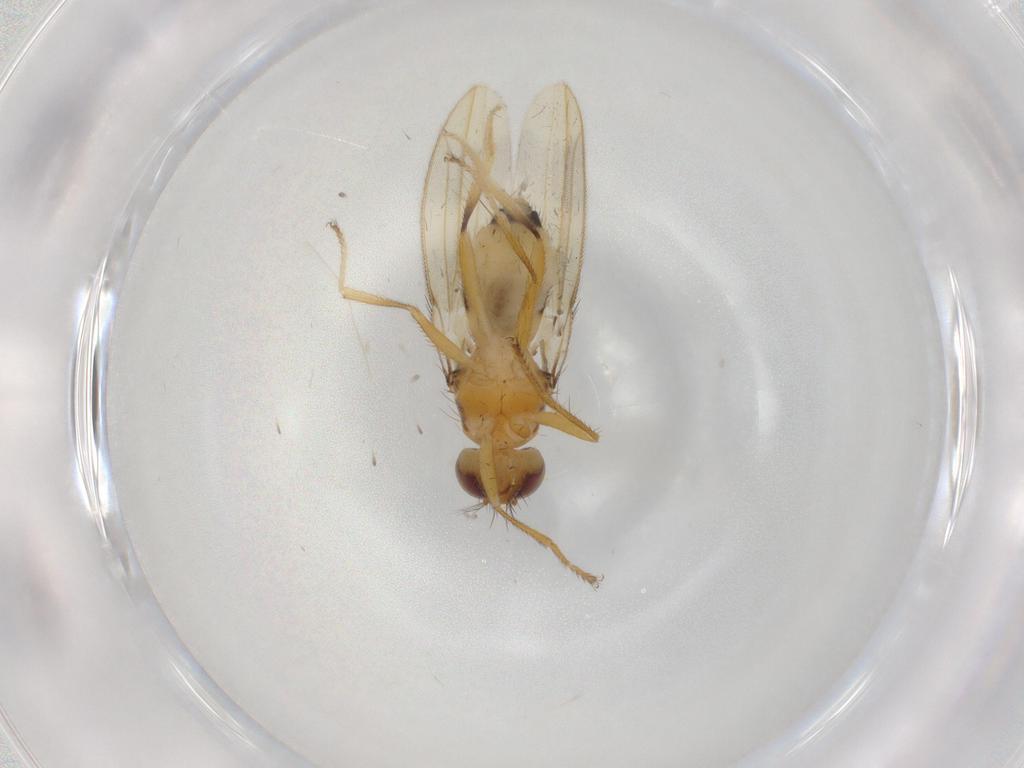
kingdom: Animalia
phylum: Arthropoda
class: Insecta
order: Diptera
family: Periscelididae
